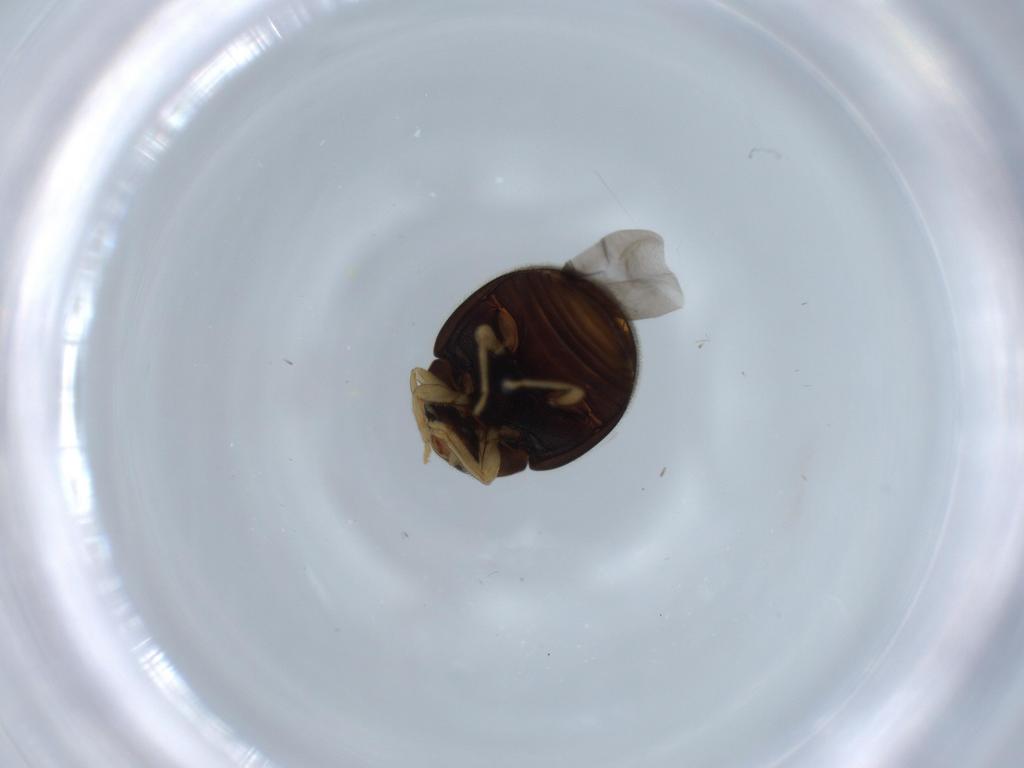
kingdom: Animalia
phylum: Arthropoda
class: Insecta
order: Coleoptera
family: Coccinellidae
